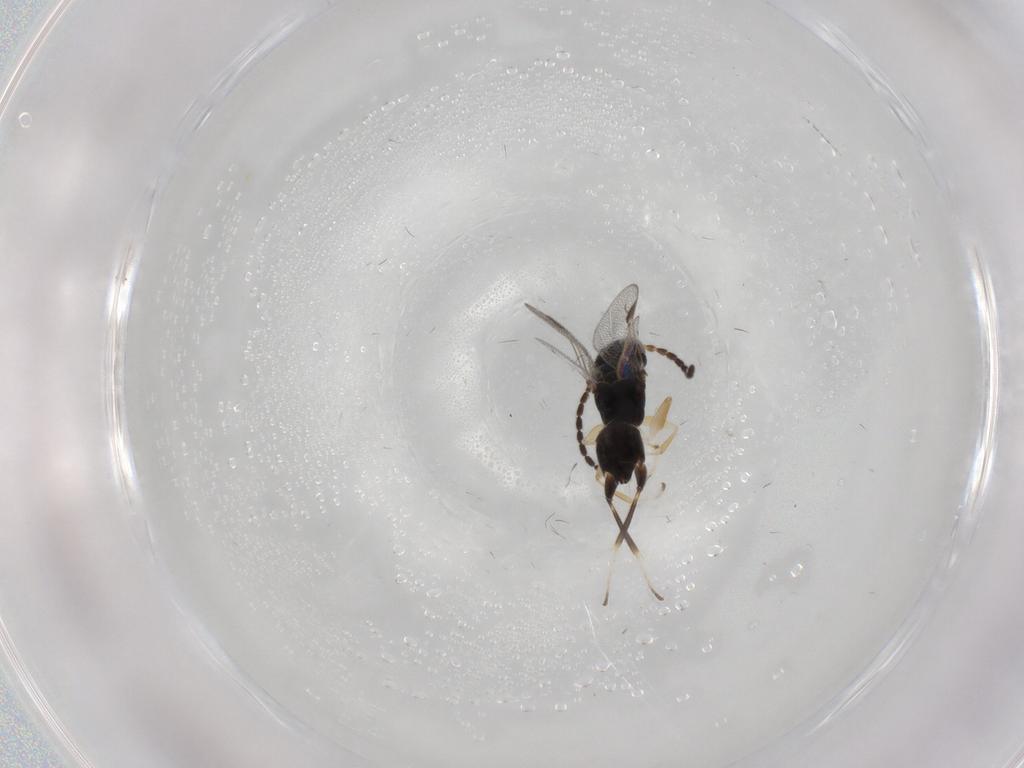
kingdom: Animalia
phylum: Arthropoda
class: Insecta
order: Hymenoptera
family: Dryinidae
